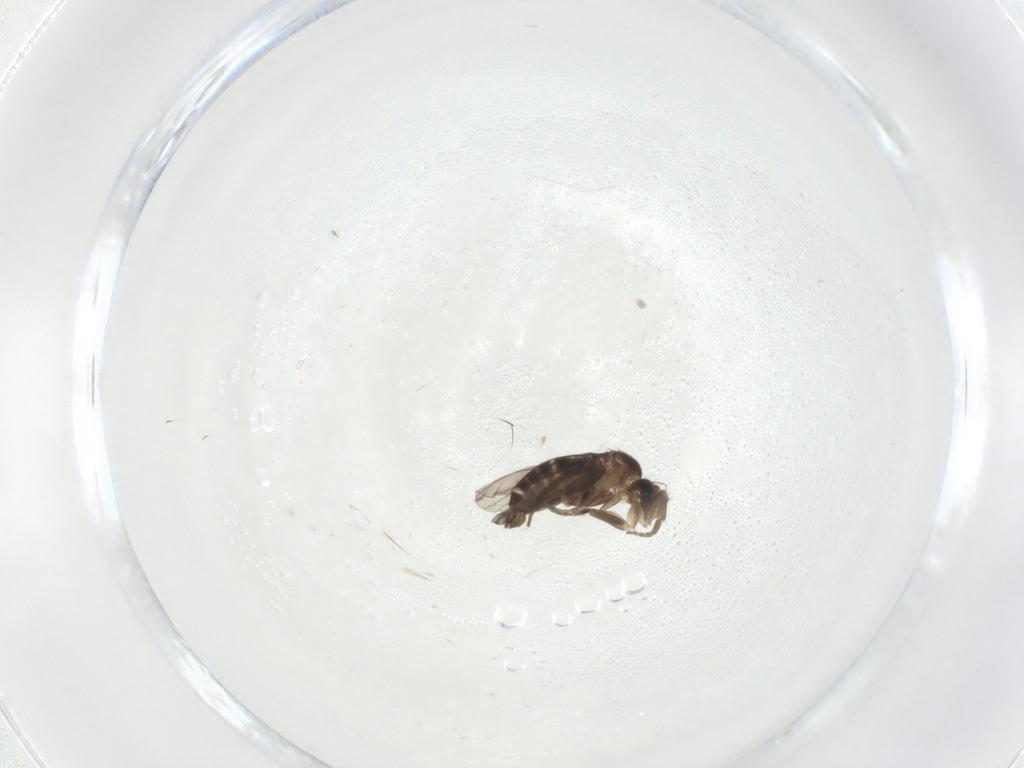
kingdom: Animalia
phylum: Arthropoda
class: Insecta
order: Diptera
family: Phoridae
